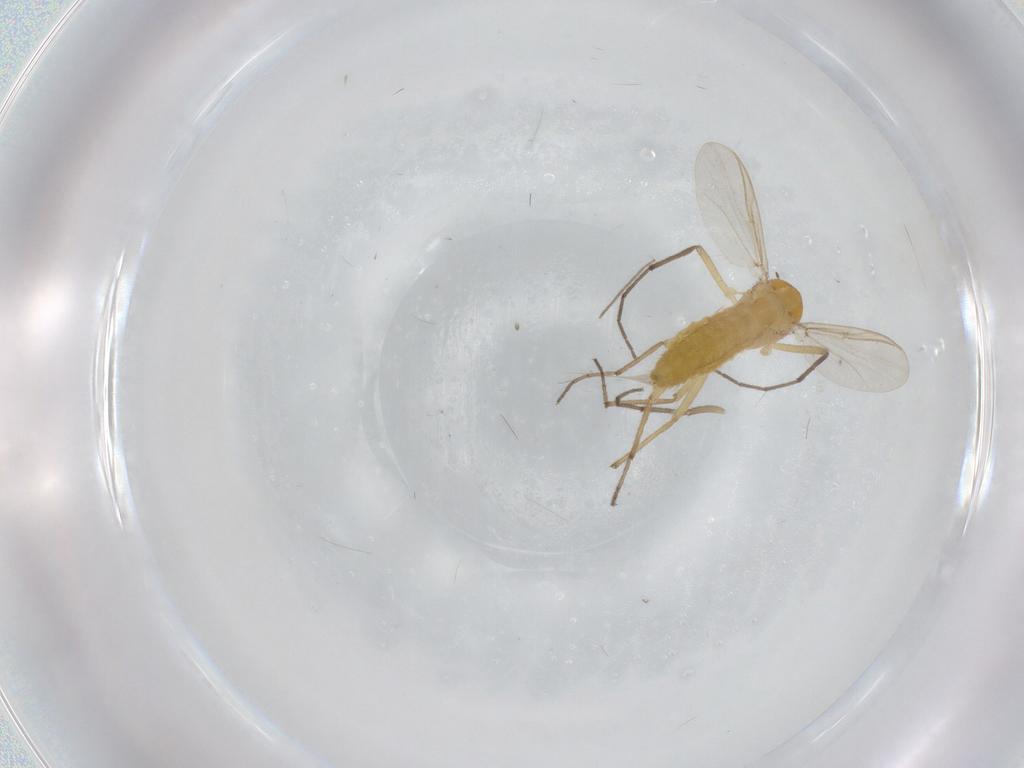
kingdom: Animalia
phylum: Arthropoda
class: Insecta
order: Diptera
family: Chironomidae
